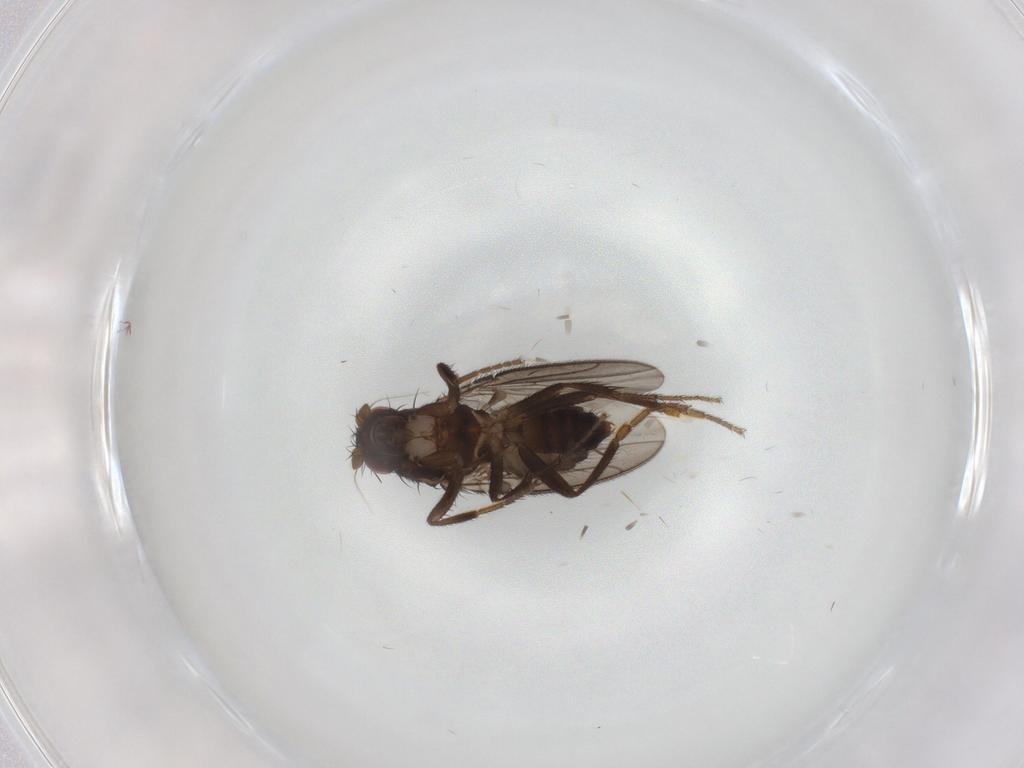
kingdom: Animalia
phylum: Arthropoda
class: Insecta
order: Diptera
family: Sphaeroceridae
